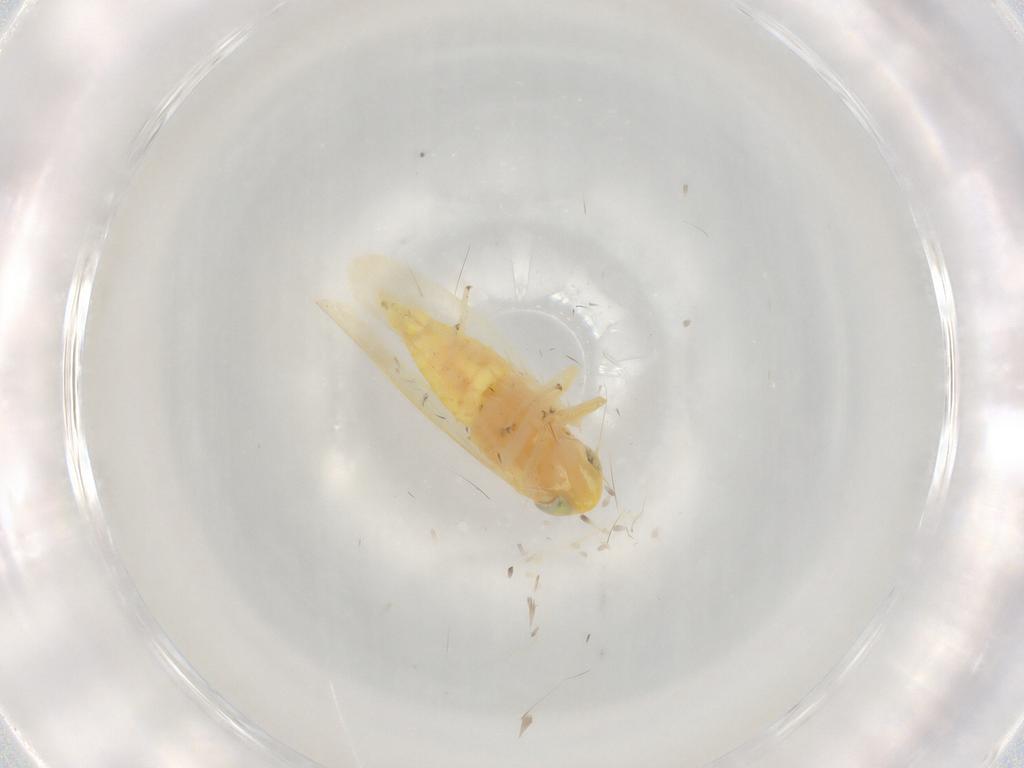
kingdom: Animalia
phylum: Arthropoda
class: Insecta
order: Hemiptera
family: Cicadellidae
